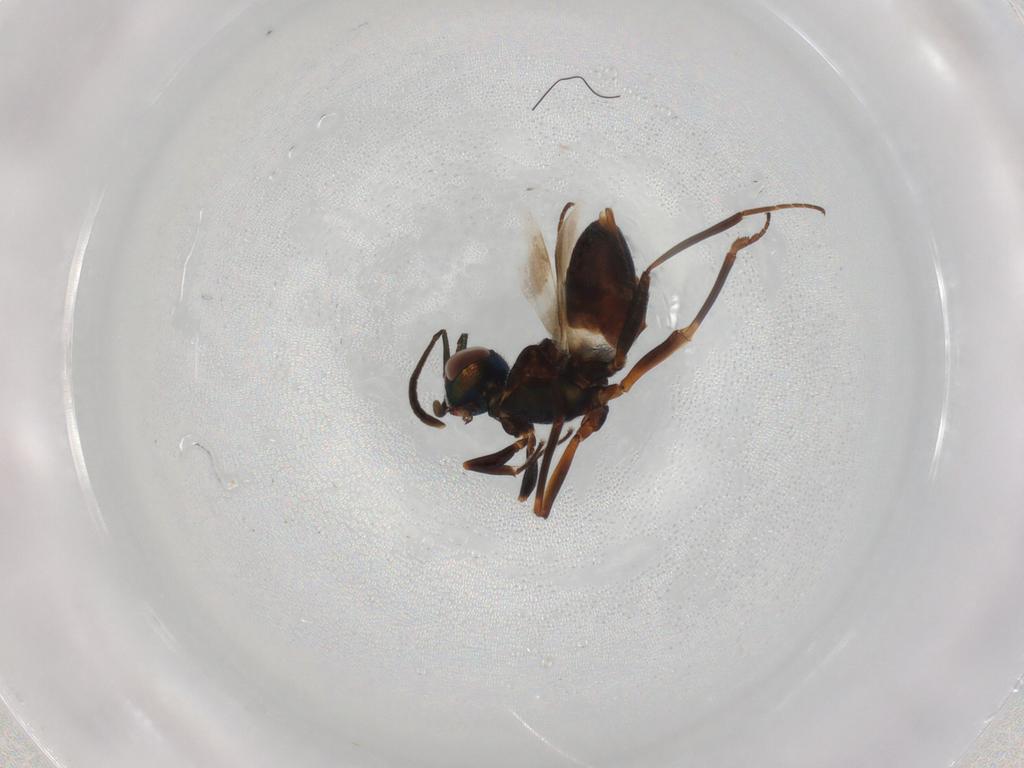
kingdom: Animalia
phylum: Arthropoda
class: Insecta
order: Hymenoptera
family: Eupelmidae
